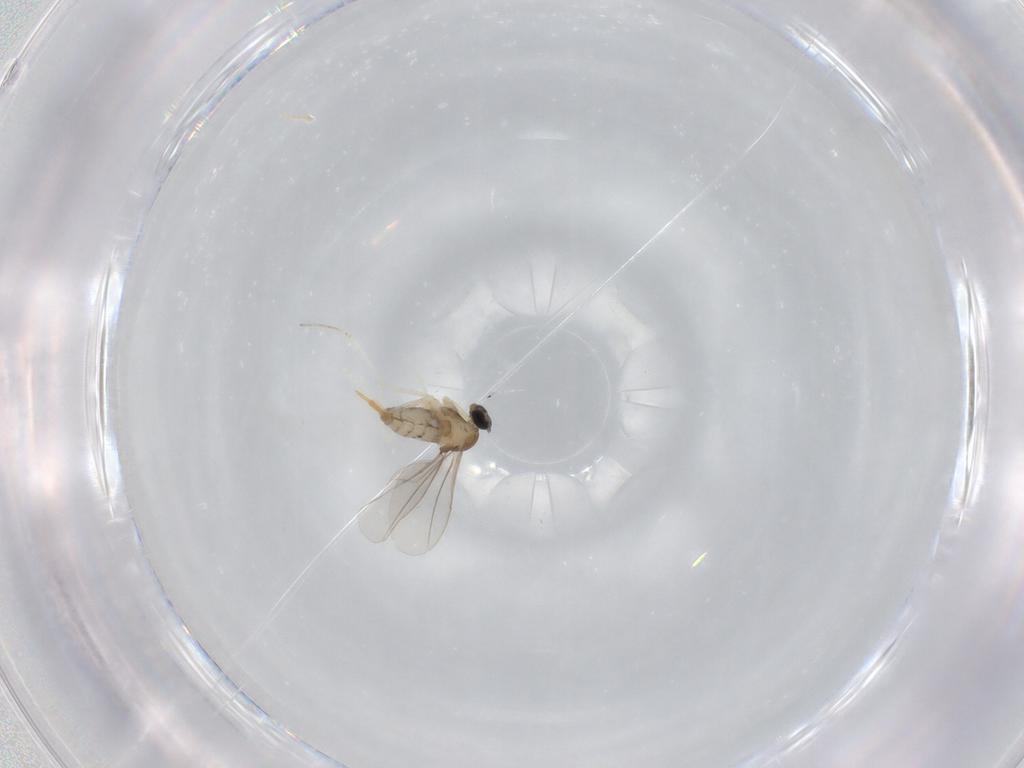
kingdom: Animalia
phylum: Arthropoda
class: Insecta
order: Diptera
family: Cecidomyiidae
